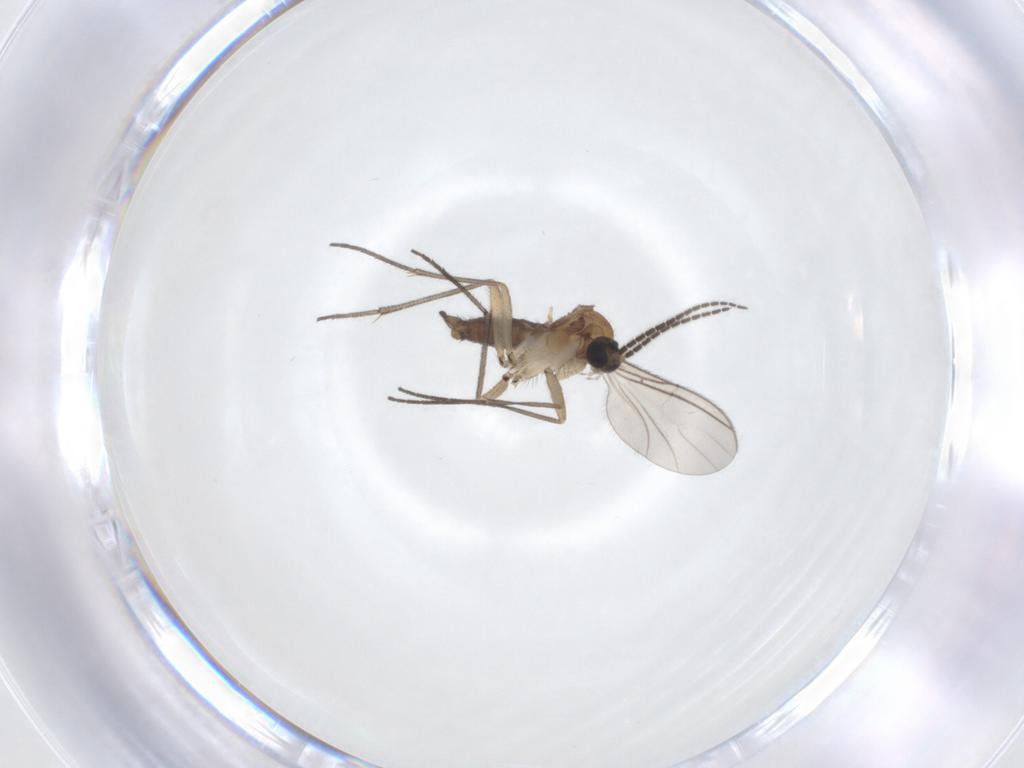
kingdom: Animalia
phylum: Arthropoda
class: Insecta
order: Diptera
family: Sciaridae
